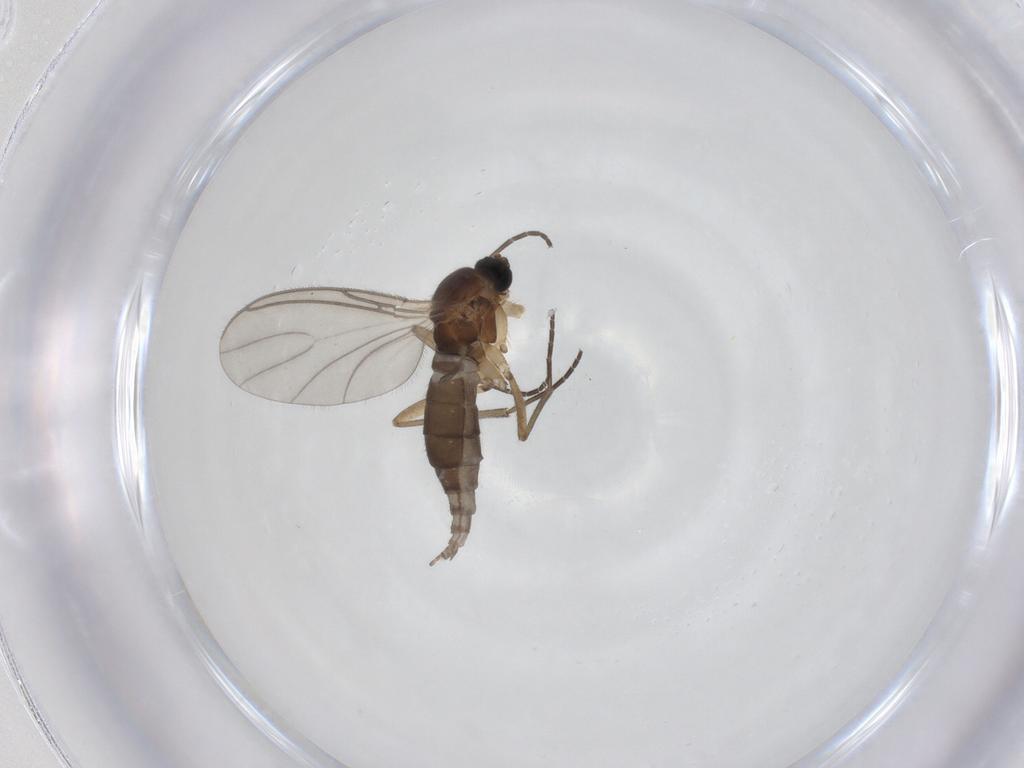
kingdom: Animalia
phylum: Arthropoda
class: Insecta
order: Diptera
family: Sciaridae
